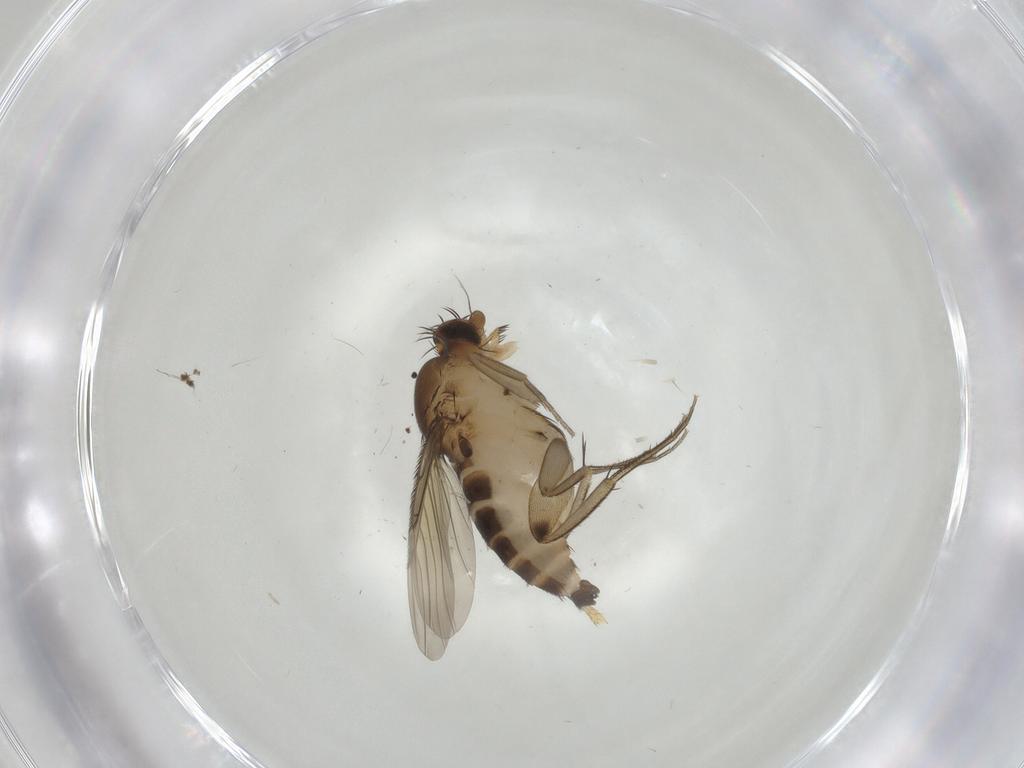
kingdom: Animalia
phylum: Arthropoda
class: Insecta
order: Diptera
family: Phoridae
